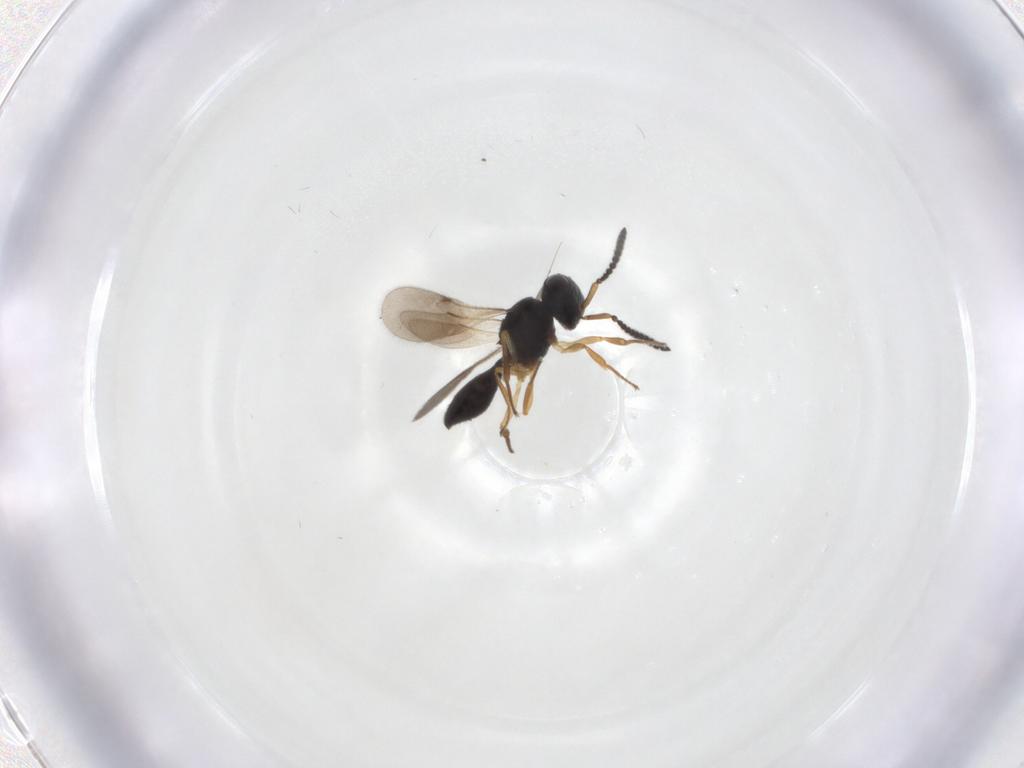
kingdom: Animalia
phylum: Arthropoda
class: Insecta
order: Hymenoptera
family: Scelionidae
